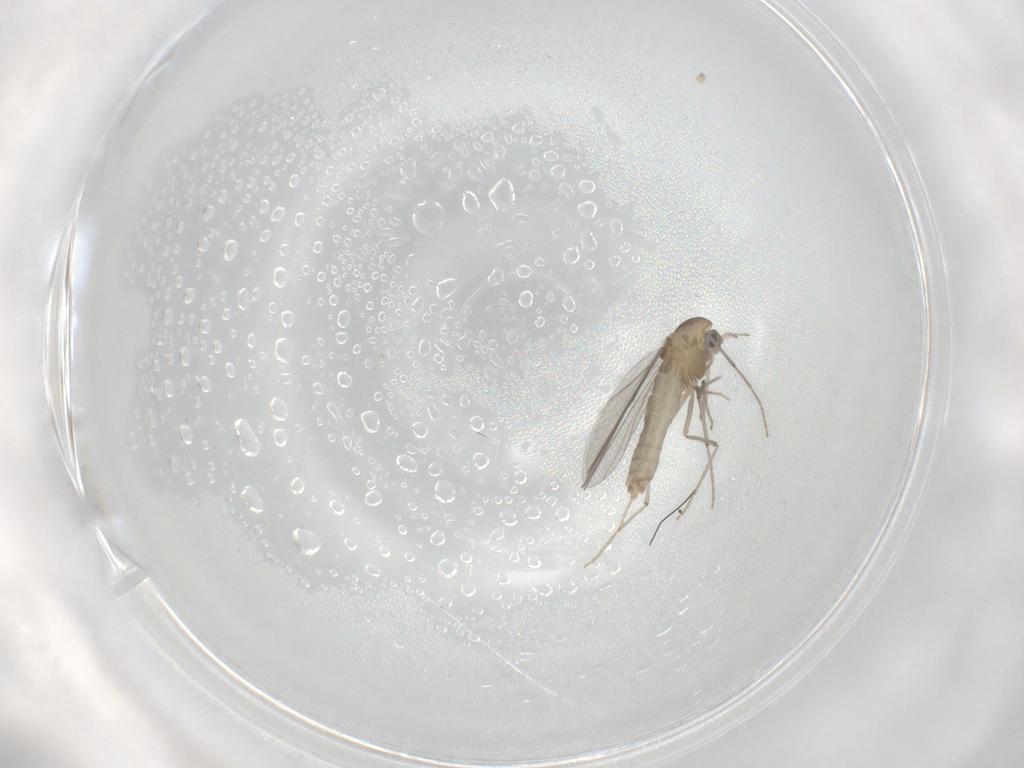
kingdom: Animalia
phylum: Arthropoda
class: Insecta
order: Diptera
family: Chironomidae
